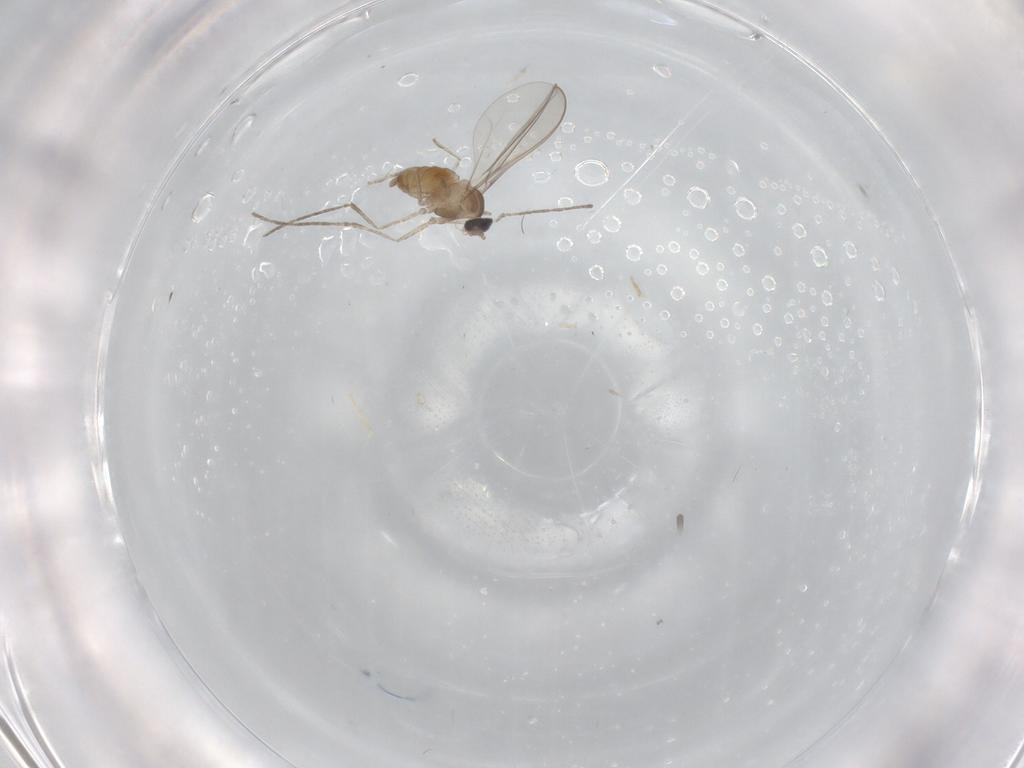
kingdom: Animalia
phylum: Arthropoda
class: Insecta
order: Diptera
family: Cecidomyiidae
